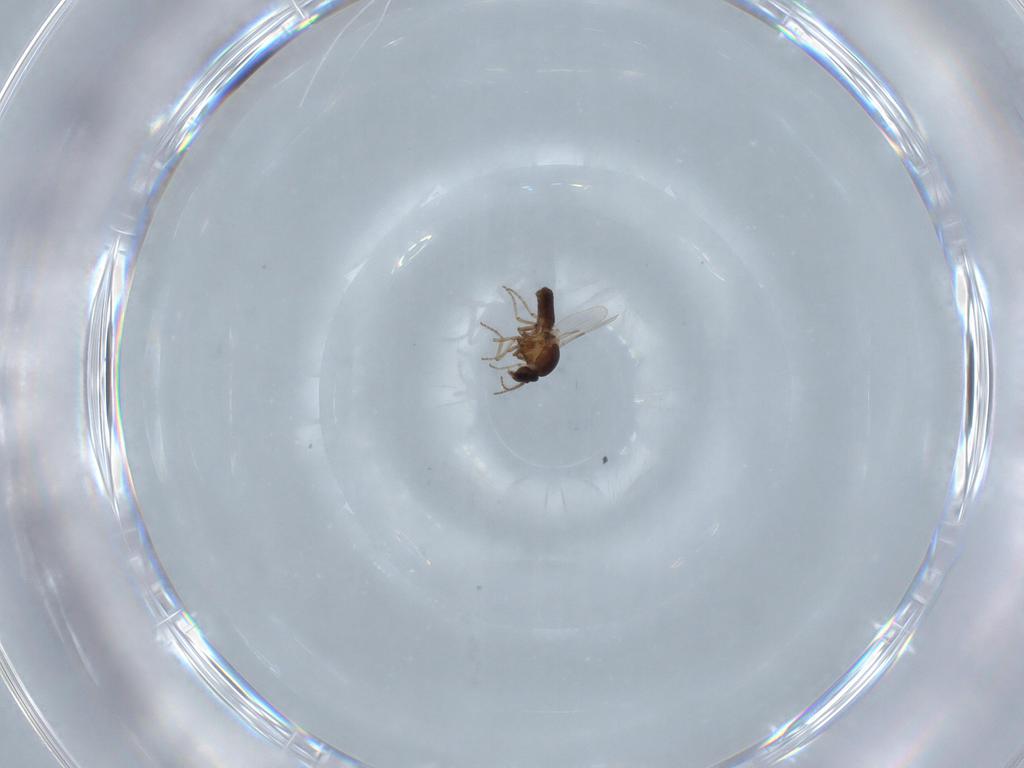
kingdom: Animalia
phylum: Arthropoda
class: Insecta
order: Diptera
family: Ceratopogonidae
